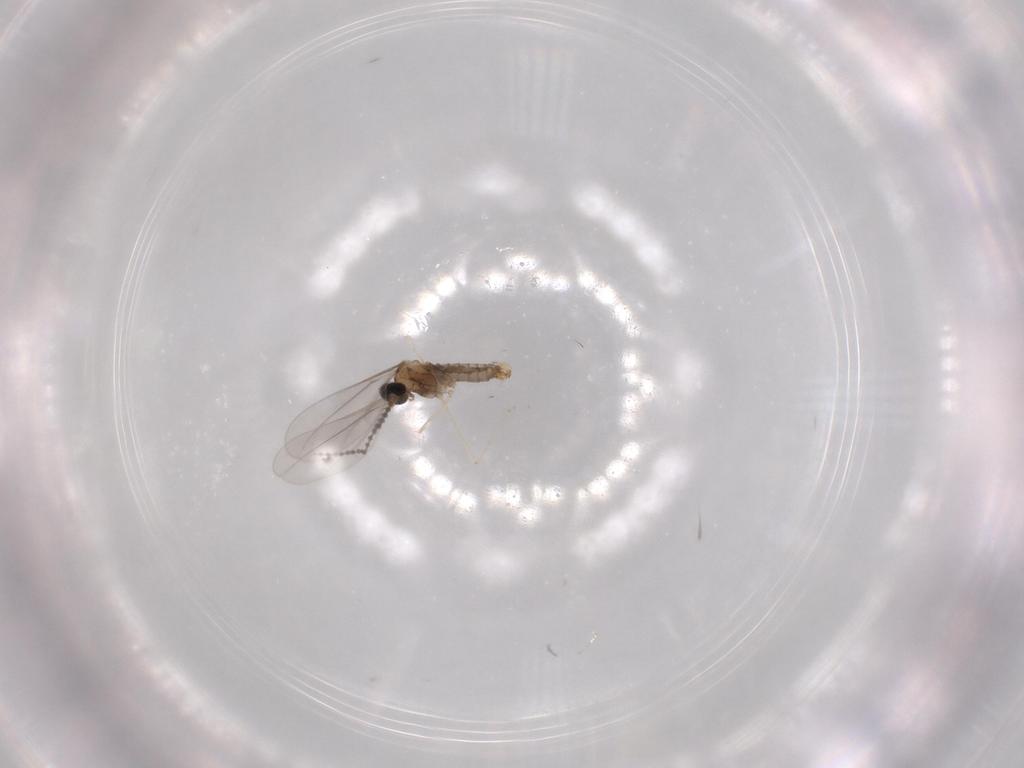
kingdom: Animalia
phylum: Arthropoda
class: Insecta
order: Diptera
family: Cecidomyiidae
